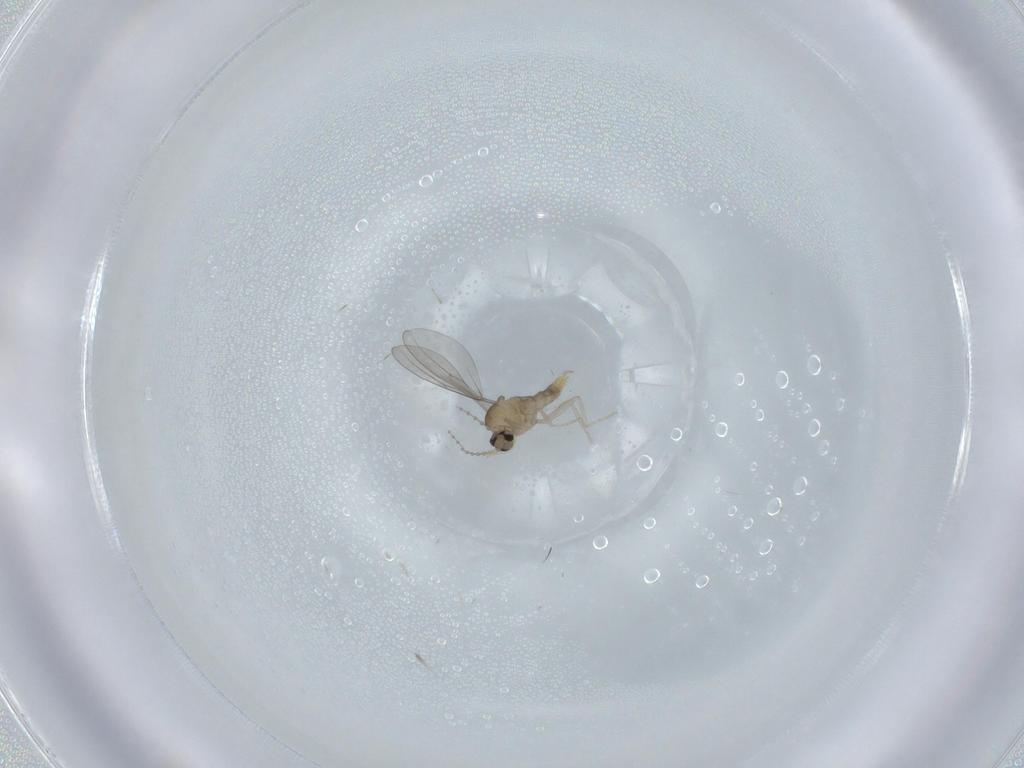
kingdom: Animalia
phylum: Arthropoda
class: Insecta
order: Diptera
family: Cecidomyiidae
